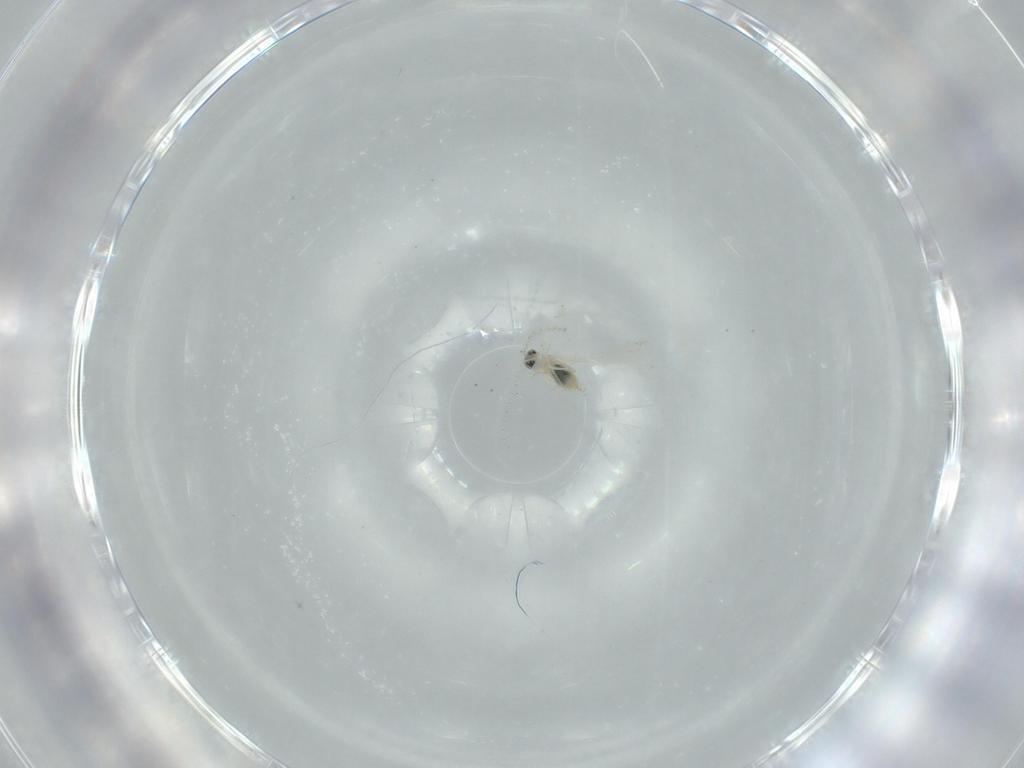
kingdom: Animalia
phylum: Arthropoda
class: Insecta
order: Diptera
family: Cecidomyiidae
